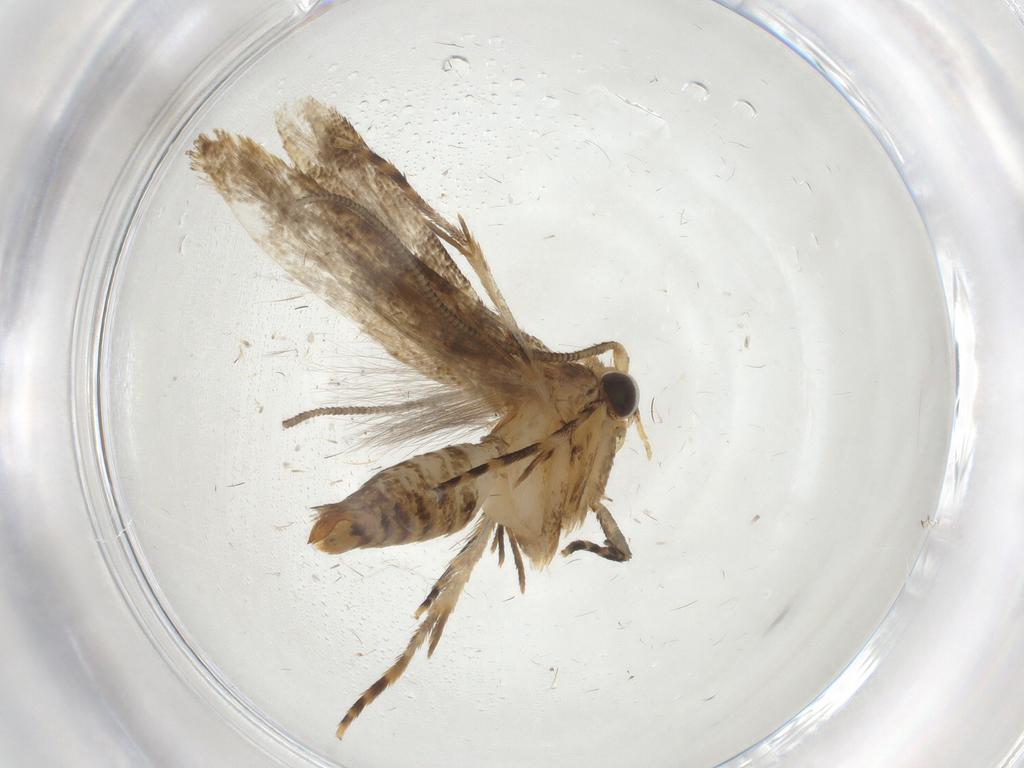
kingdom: Animalia
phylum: Arthropoda
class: Insecta
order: Lepidoptera
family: Tineidae
